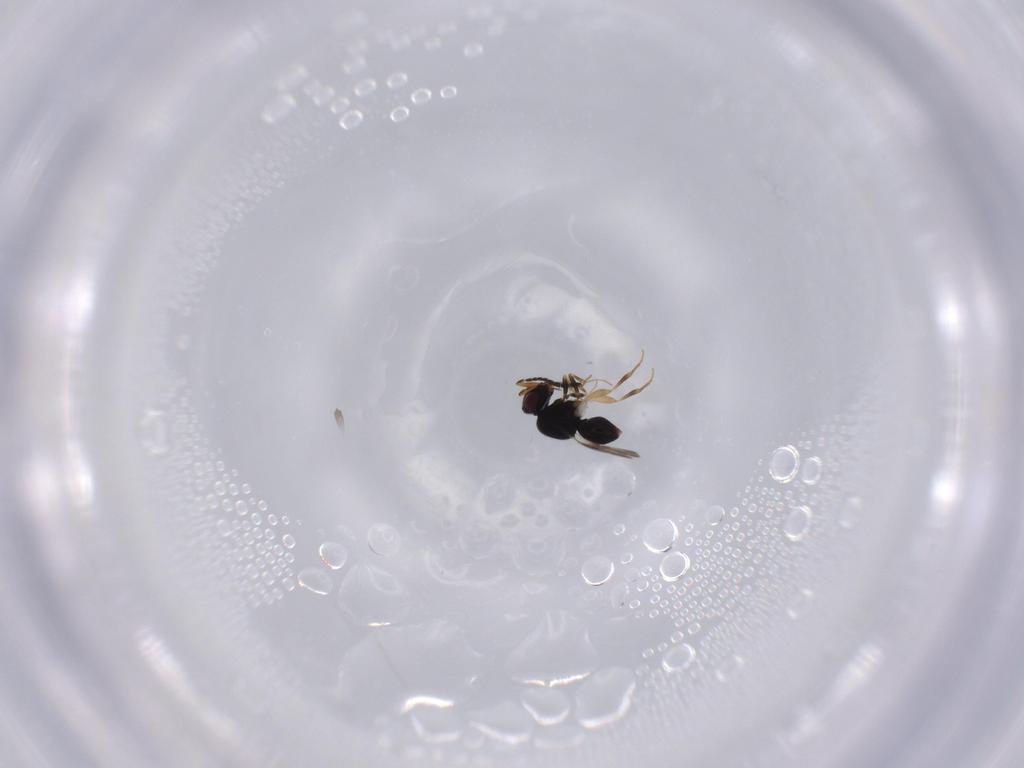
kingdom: Animalia
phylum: Arthropoda
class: Insecta
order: Hymenoptera
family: Ceraphronidae
